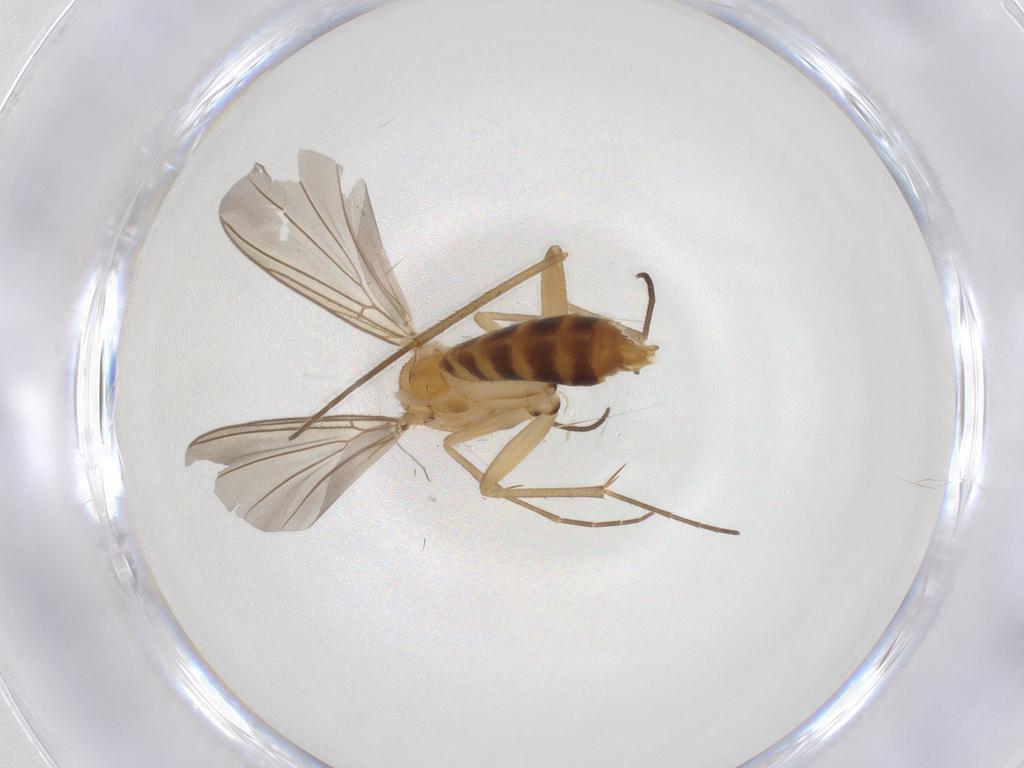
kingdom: Animalia
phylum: Arthropoda
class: Insecta
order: Diptera
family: Mycetophilidae
